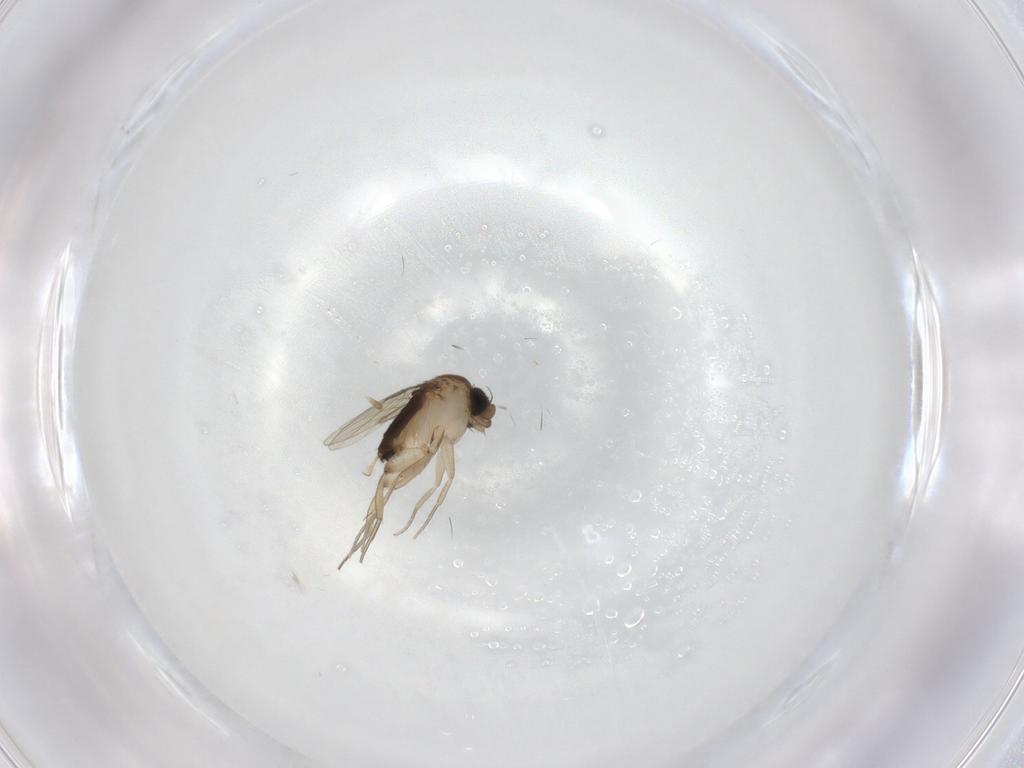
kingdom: Animalia
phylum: Arthropoda
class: Insecta
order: Diptera
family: Phoridae
